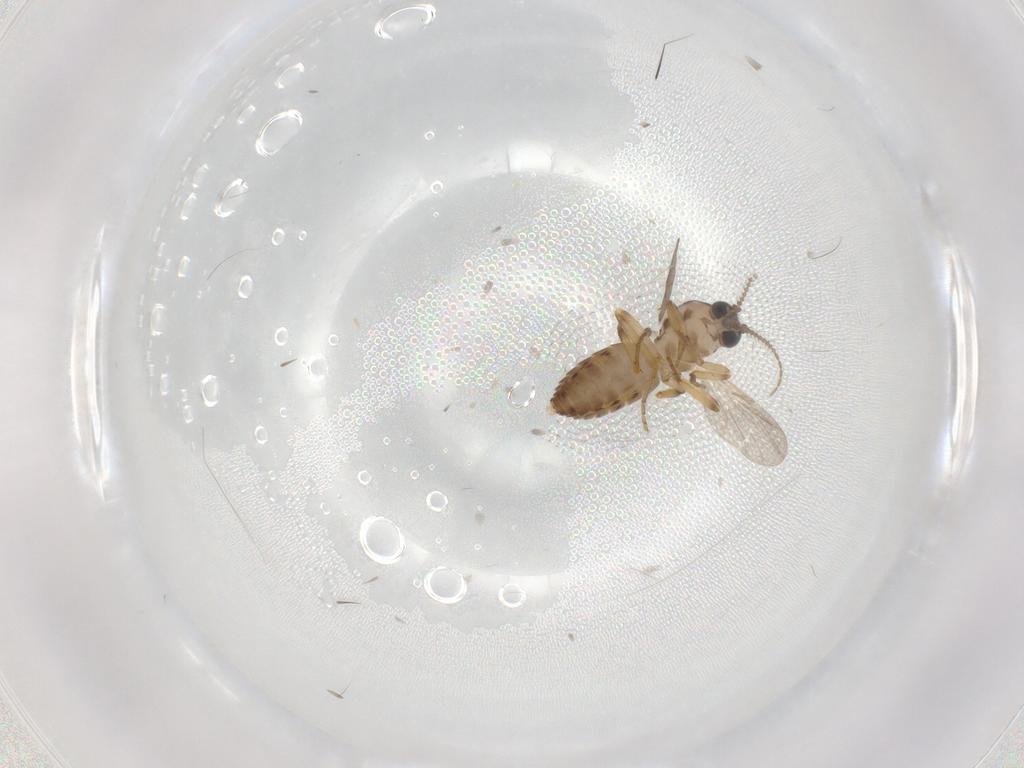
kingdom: Animalia
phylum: Arthropoda
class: Insecta
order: Diptera
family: Ceratopogonidae
